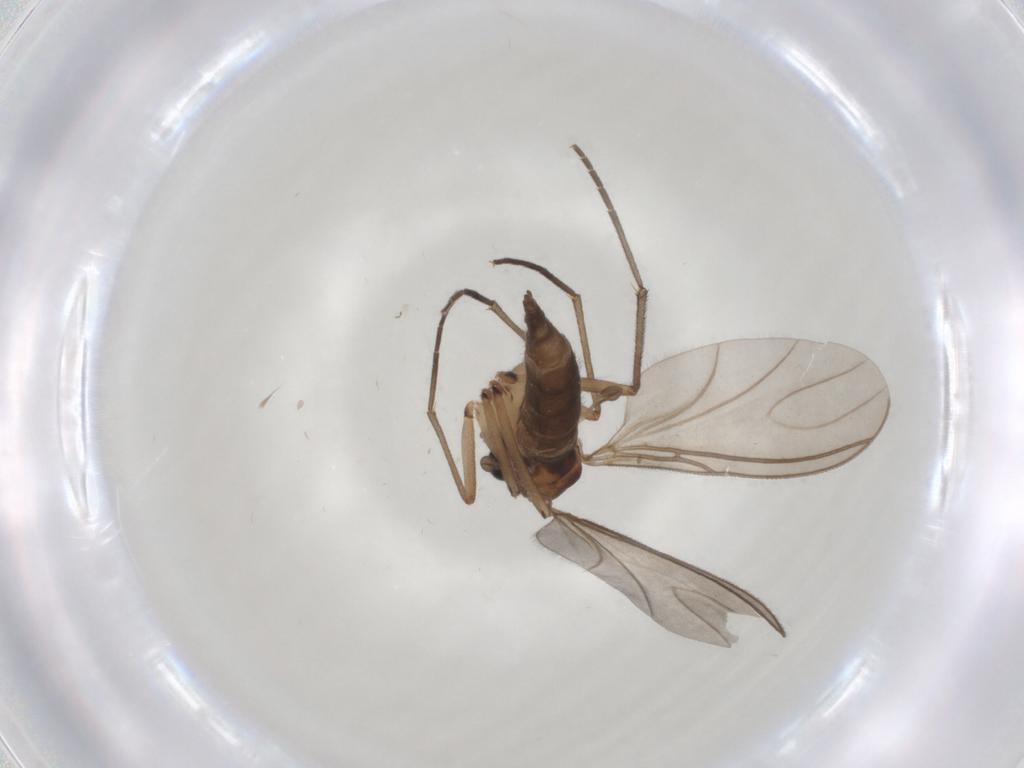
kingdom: Animalia
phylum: Arthropoda
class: Insecta
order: Diptera
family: Sciaridae
